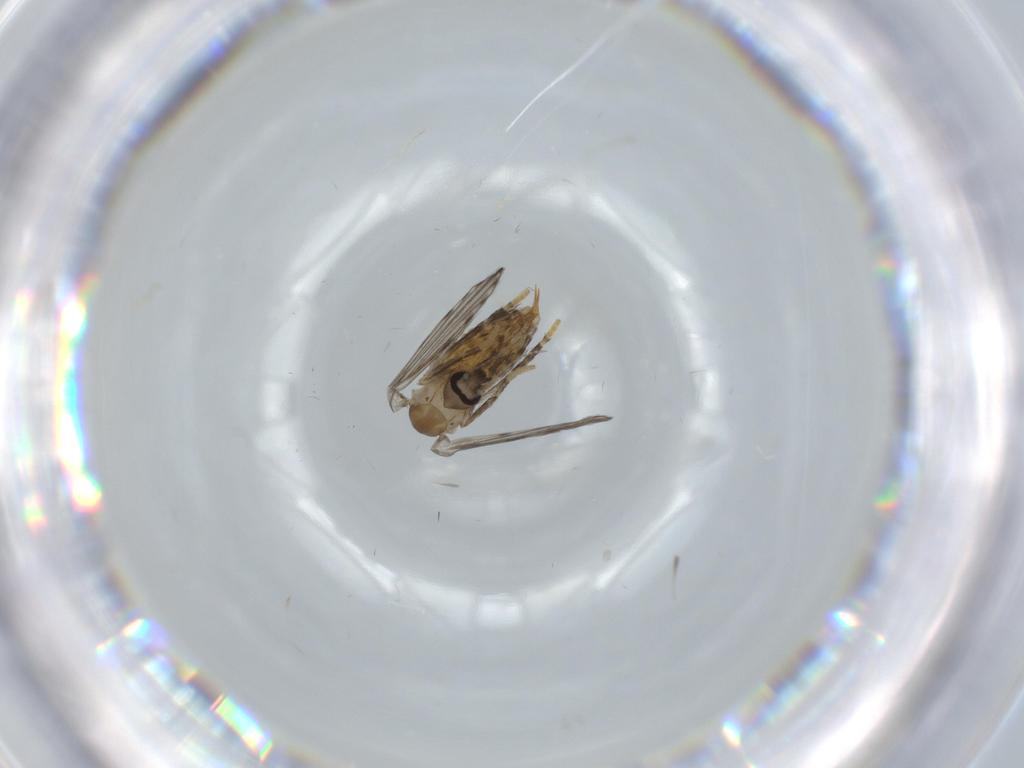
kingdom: Animalia
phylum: Arthropoda
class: Insecta
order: Diptera
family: Psychodidae
